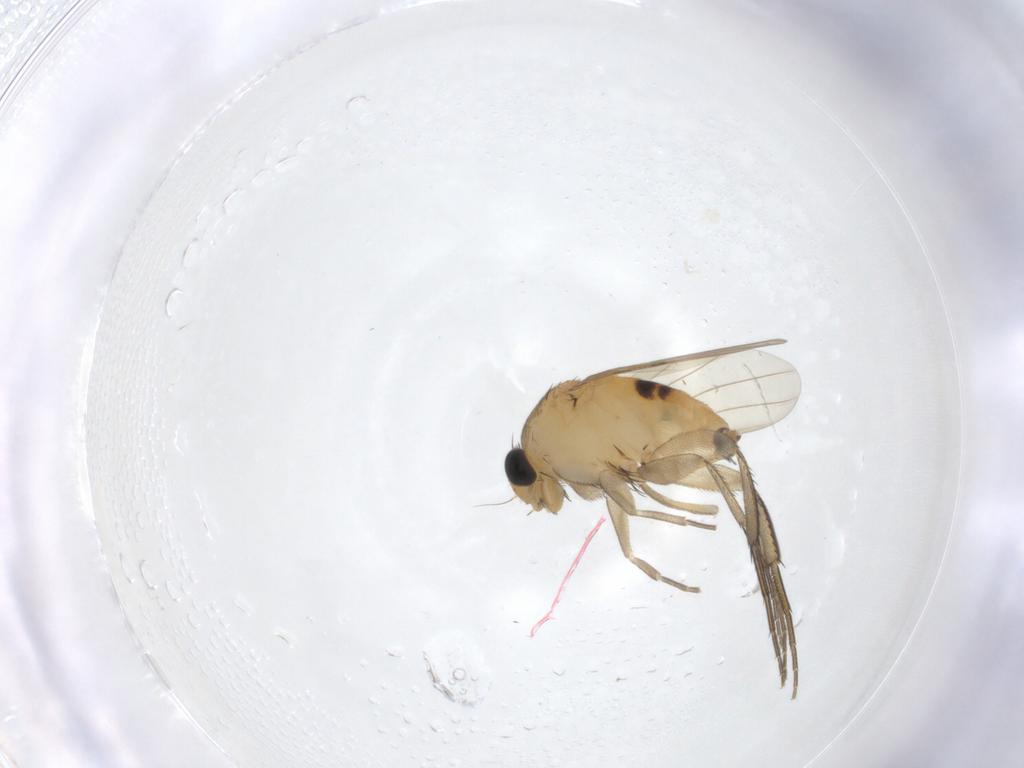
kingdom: Animalia
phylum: Arthropoda
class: Insecta
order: Diptera
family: Phoridae
